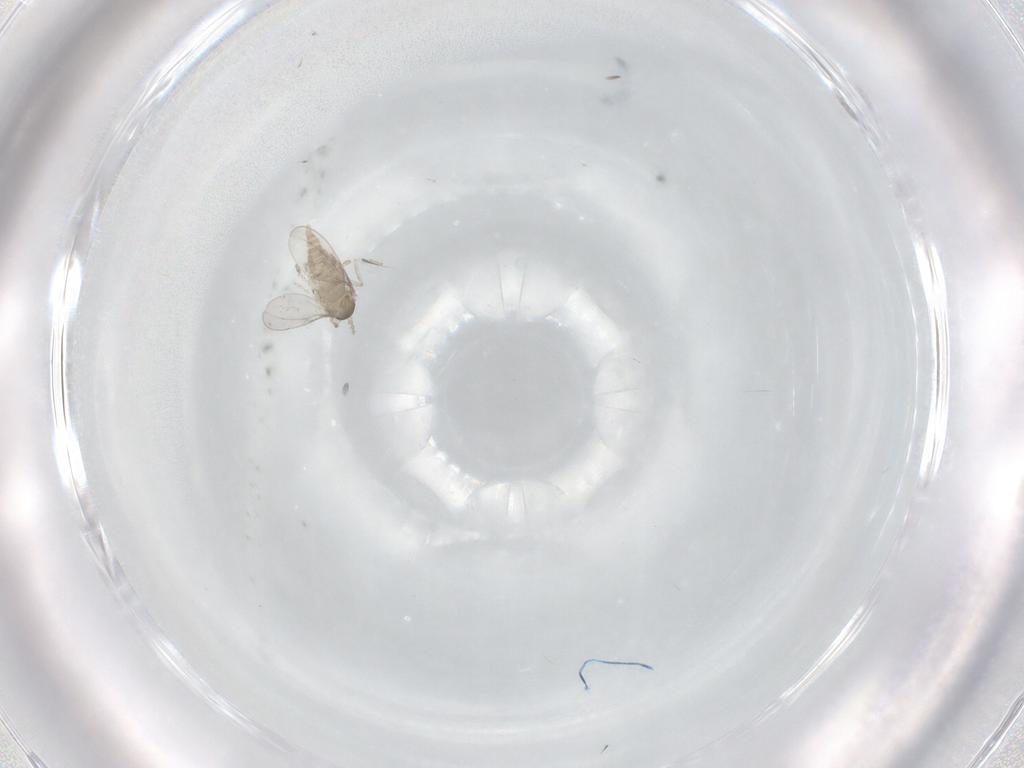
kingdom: Animalia
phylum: Arthropoda
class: Insecta
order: Diptera
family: Cecidomyiidae
